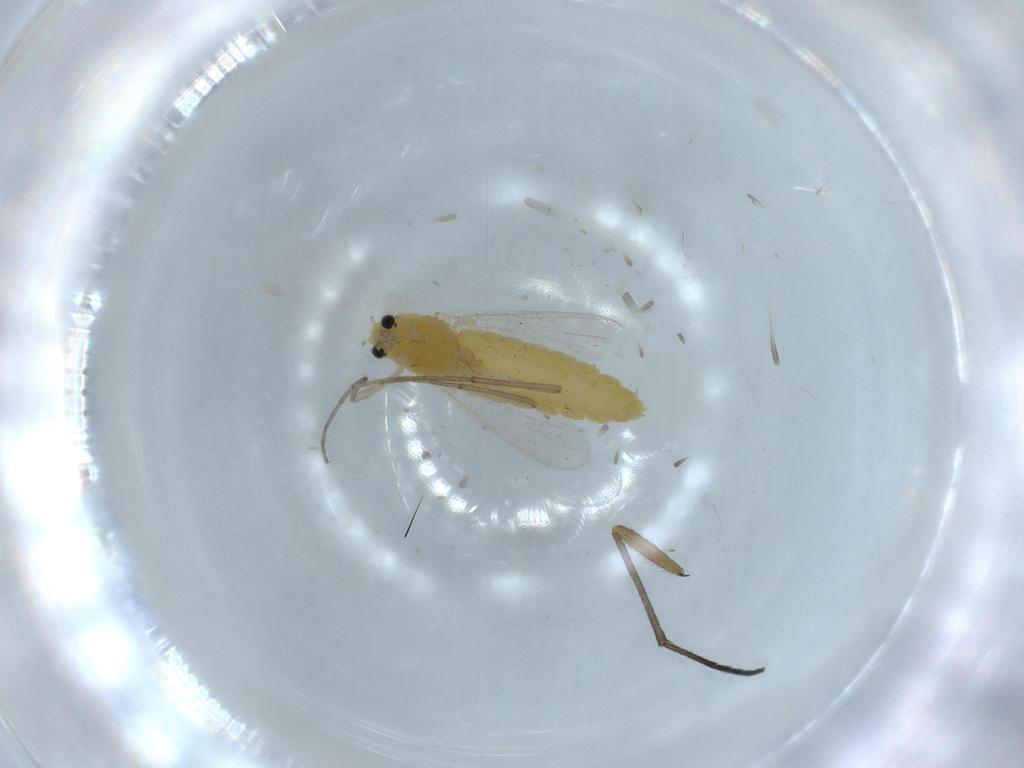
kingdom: Animalia
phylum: Arthropoda
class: Insecta
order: Diptera
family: Chironomidae
